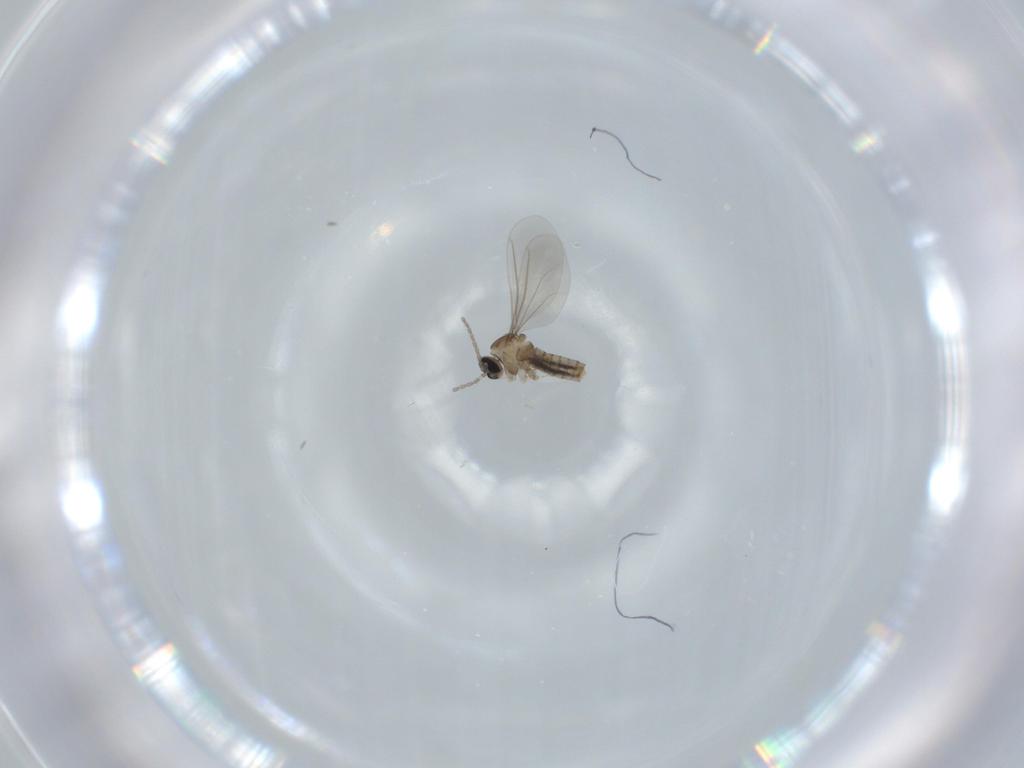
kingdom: Animalia
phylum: Arthropoda
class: Insecta
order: Diptera
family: Cecidomyiidae
